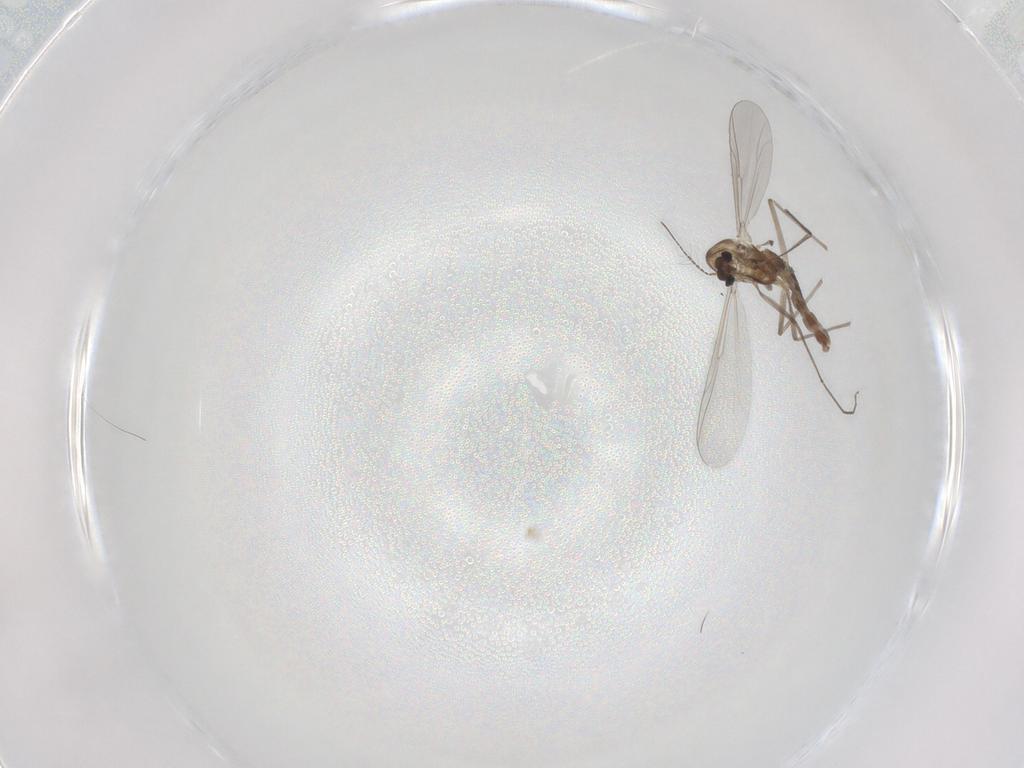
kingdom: Animalia
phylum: Arthropoda
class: Insecta
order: Diptera
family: Chironomidae
